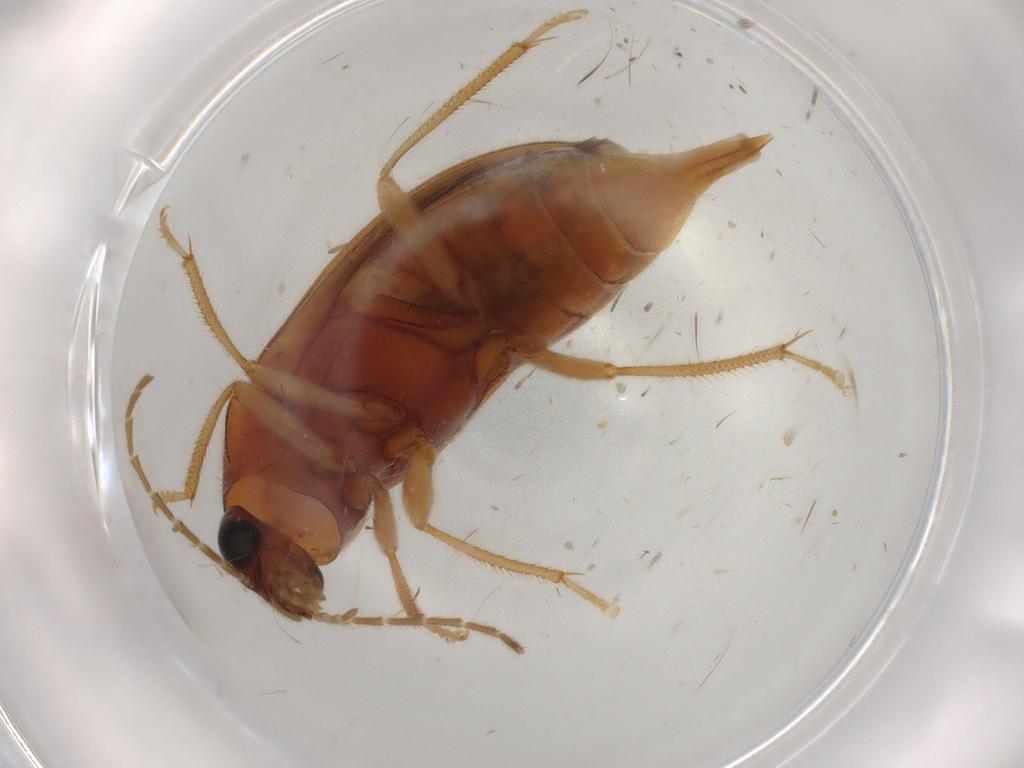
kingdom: Animalia
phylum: Arthropoda
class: Insecta
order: Coleoptera
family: Ptilodactylidae
